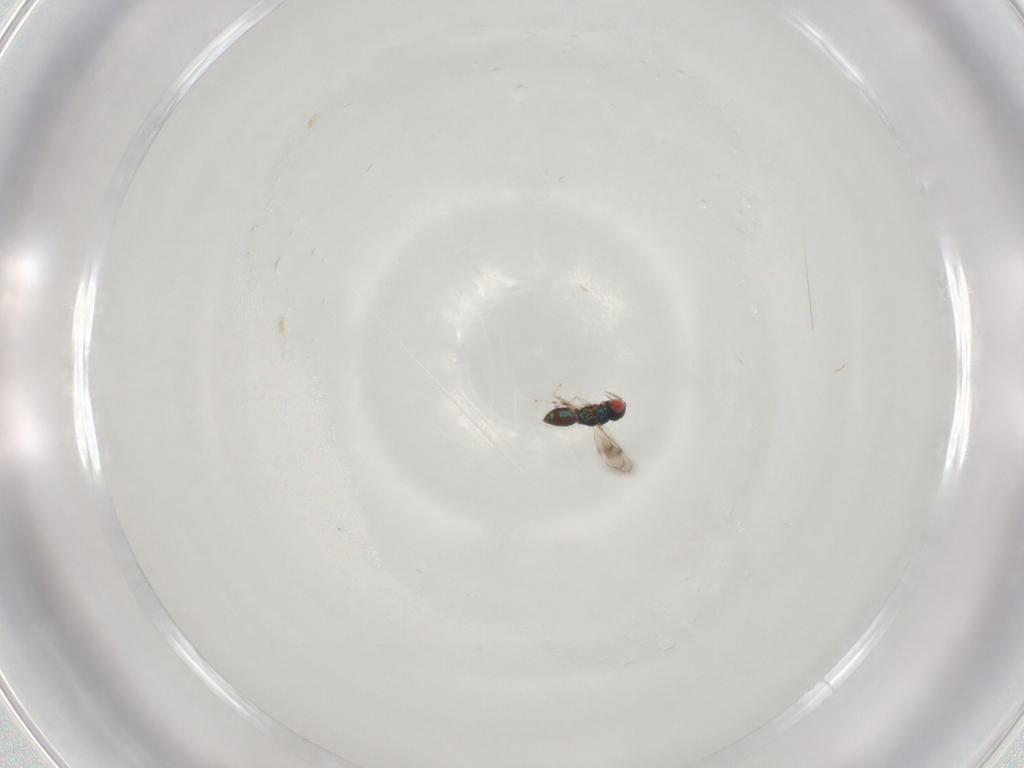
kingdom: Animalia
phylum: Arthropoda
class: Insecta
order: Hymenoptera
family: Eulophidae
